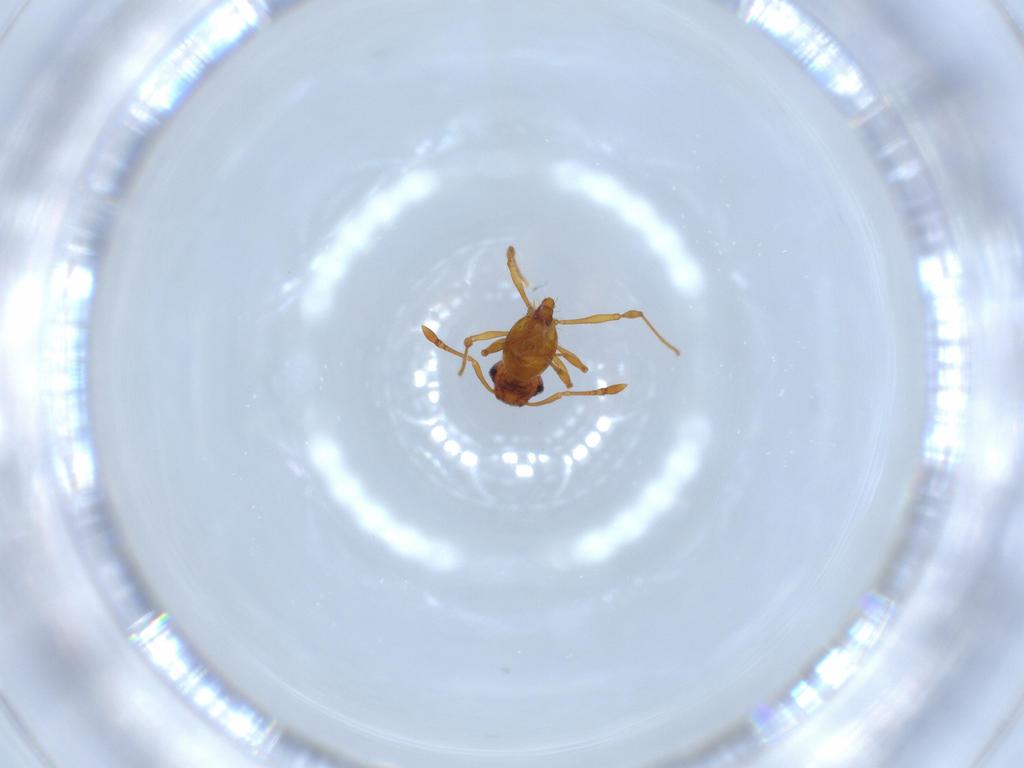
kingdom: Animalia
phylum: Arthropoda
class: Insecta
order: Hymenoptera
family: Formicidae
